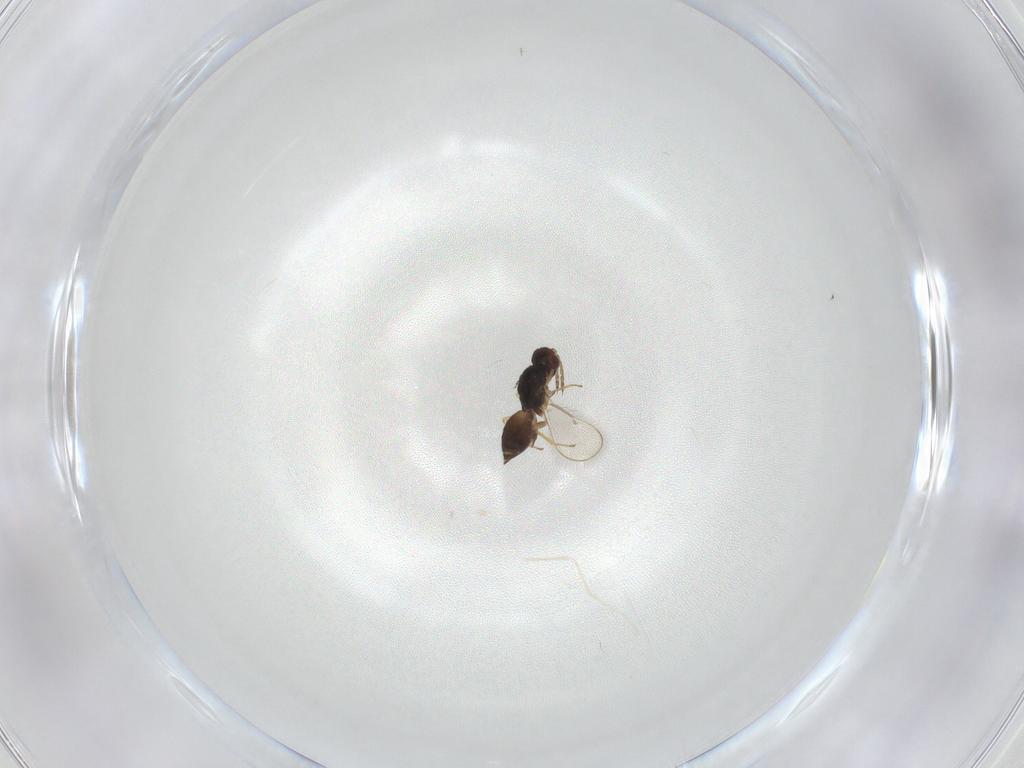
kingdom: Animalia
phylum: Arthropoda
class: Insecta
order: Diptera
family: Cecidomyiidae
